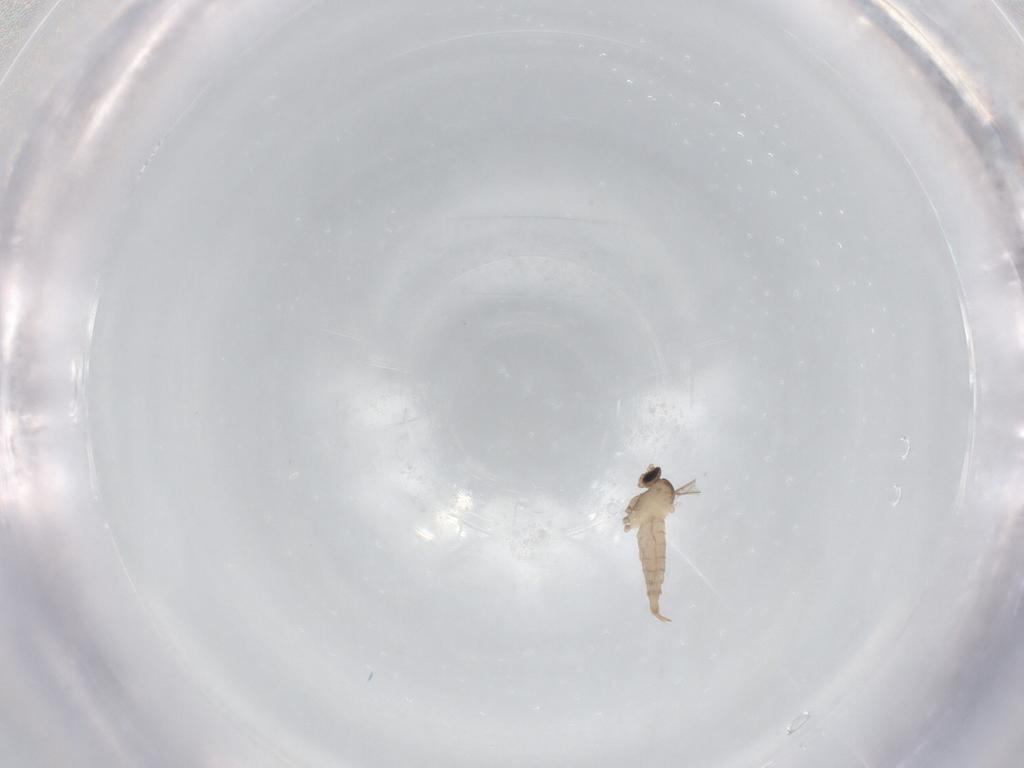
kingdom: Animalia
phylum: Arthropoda
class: Insecta
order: Diptera
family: Cecidomyiidae
